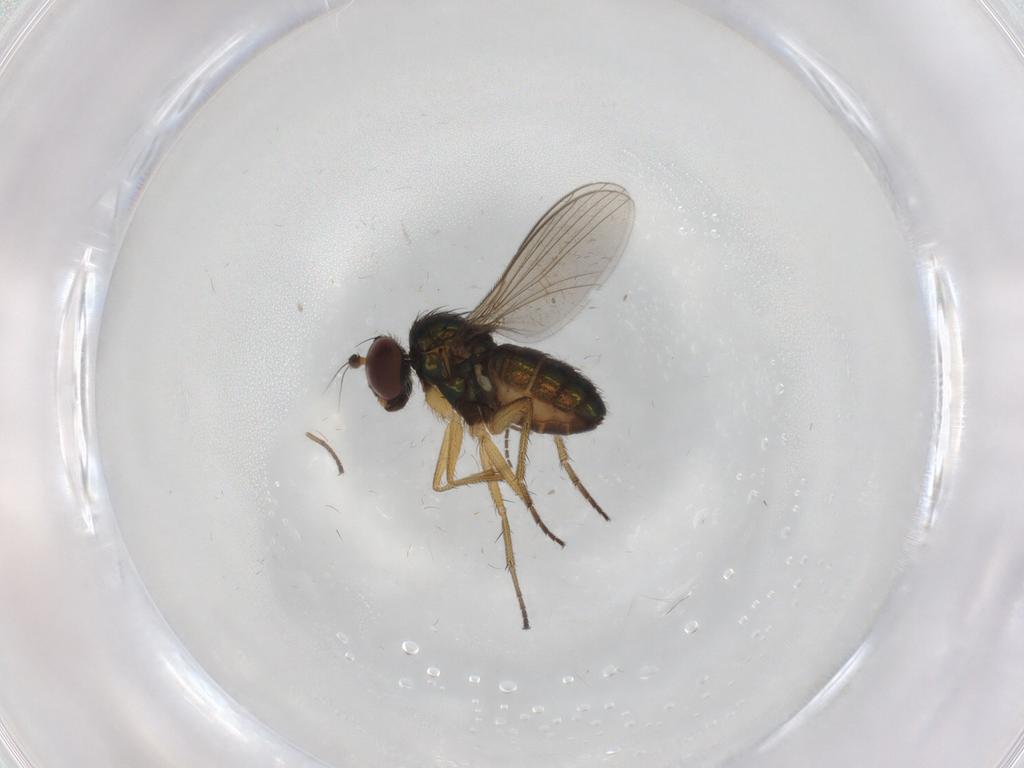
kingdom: Animalia
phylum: Arthropoda
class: Insecta
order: Diptera
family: Sciaridae
